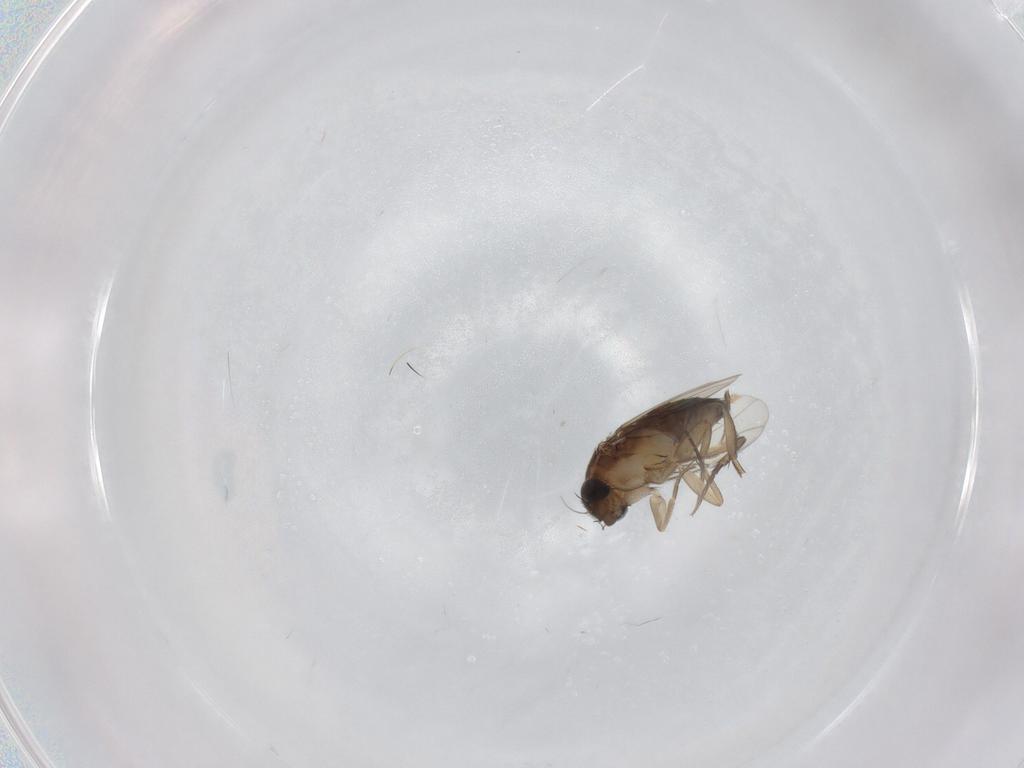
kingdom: Animalia
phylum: Arthropoda
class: Insecta
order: Diptera
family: Phoridae
